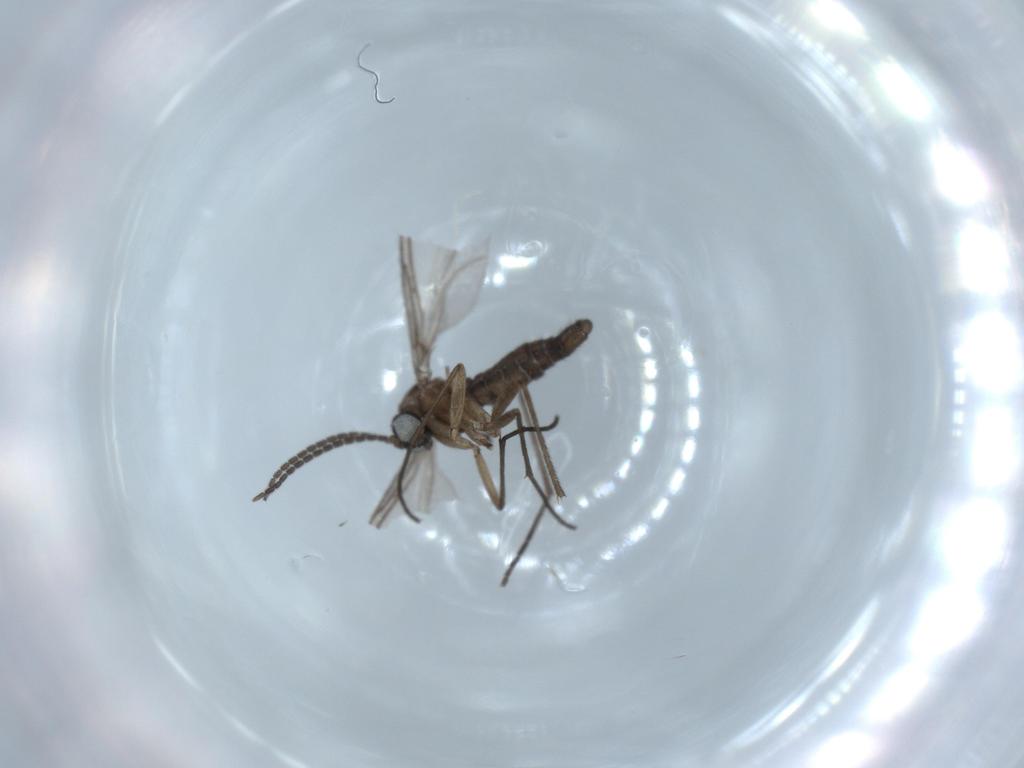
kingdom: Animalia
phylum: Arthropoda
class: Insecta
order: Diptera
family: Sciaridae
